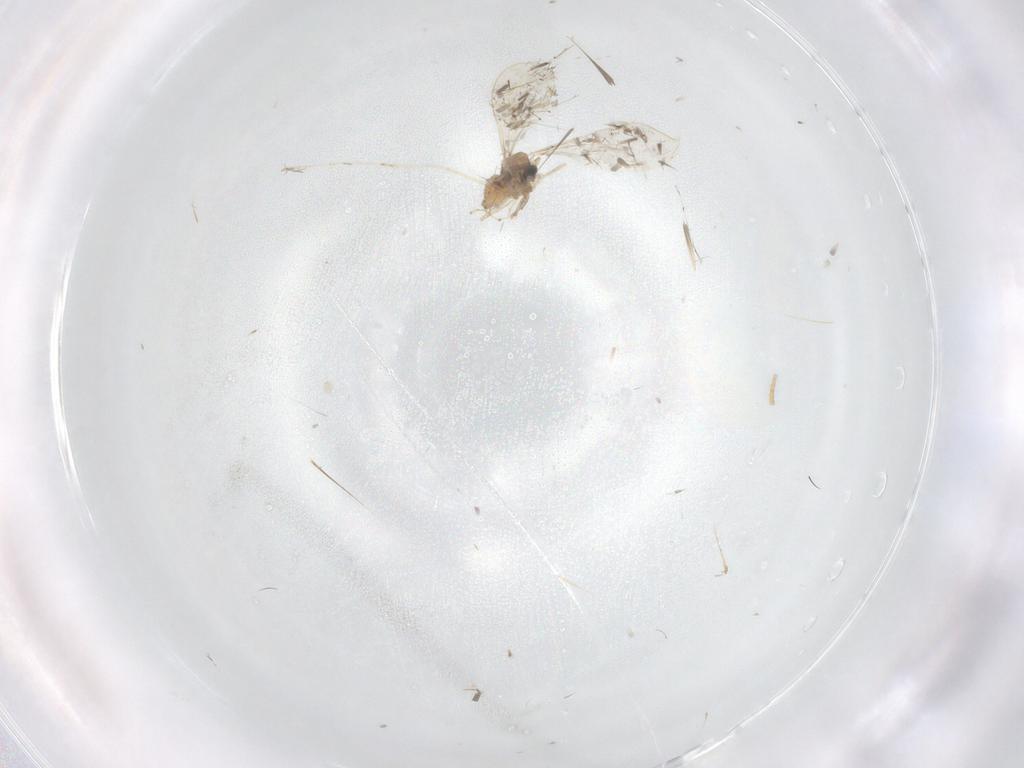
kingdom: Animalia
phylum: Arthropoda
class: Insecta
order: Diptera
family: Cecidomyiidae
